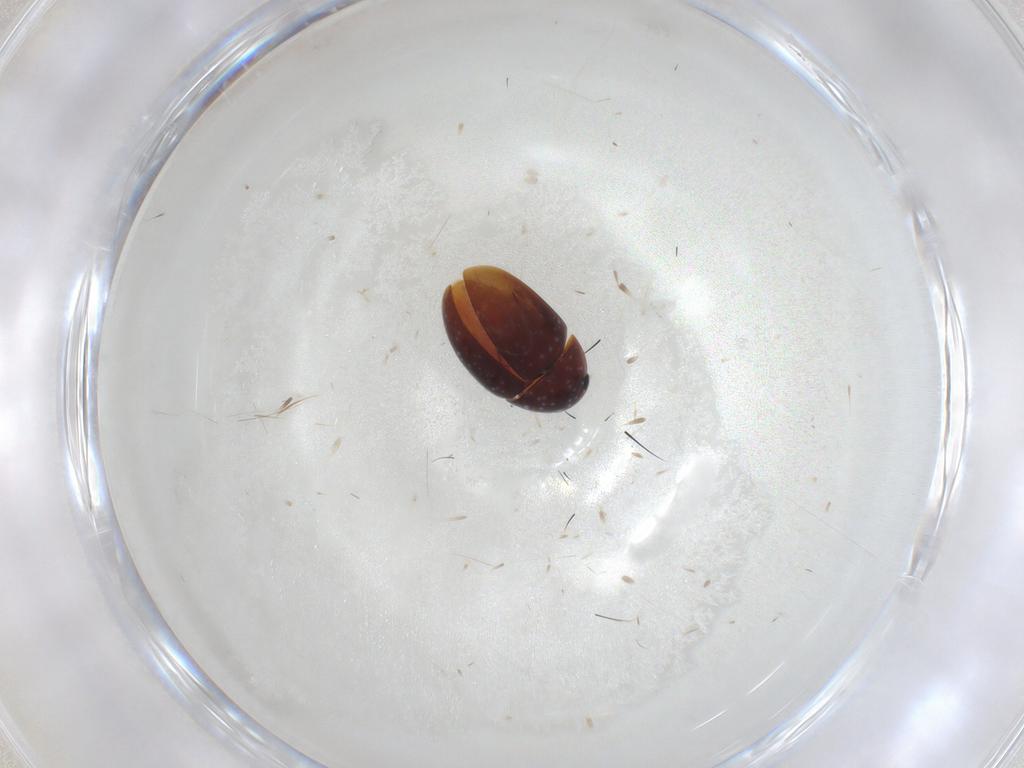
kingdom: Animalia
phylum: Arthropoda
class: Insecta
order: Coleoptera
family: Phalacridae
